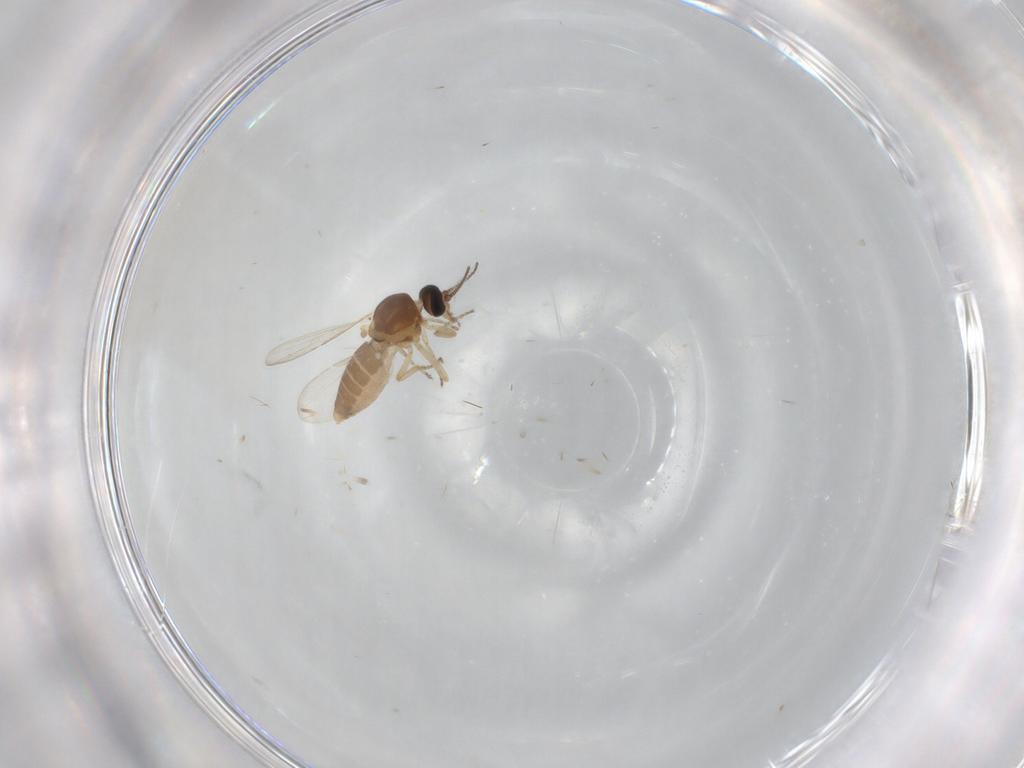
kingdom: Animalia
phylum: Arthropoda
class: Insecta
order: Diptera
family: Ceratopogonidae
